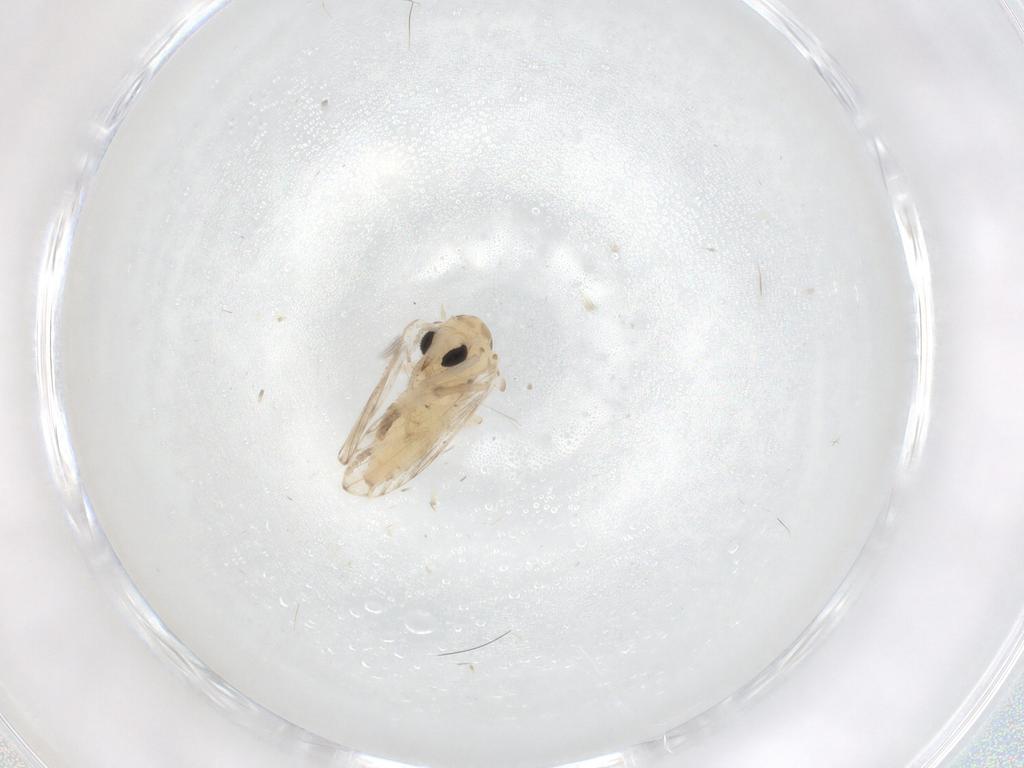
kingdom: Animalia
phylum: Arthropoda
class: Insecta
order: Diptera
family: Psychodidae
